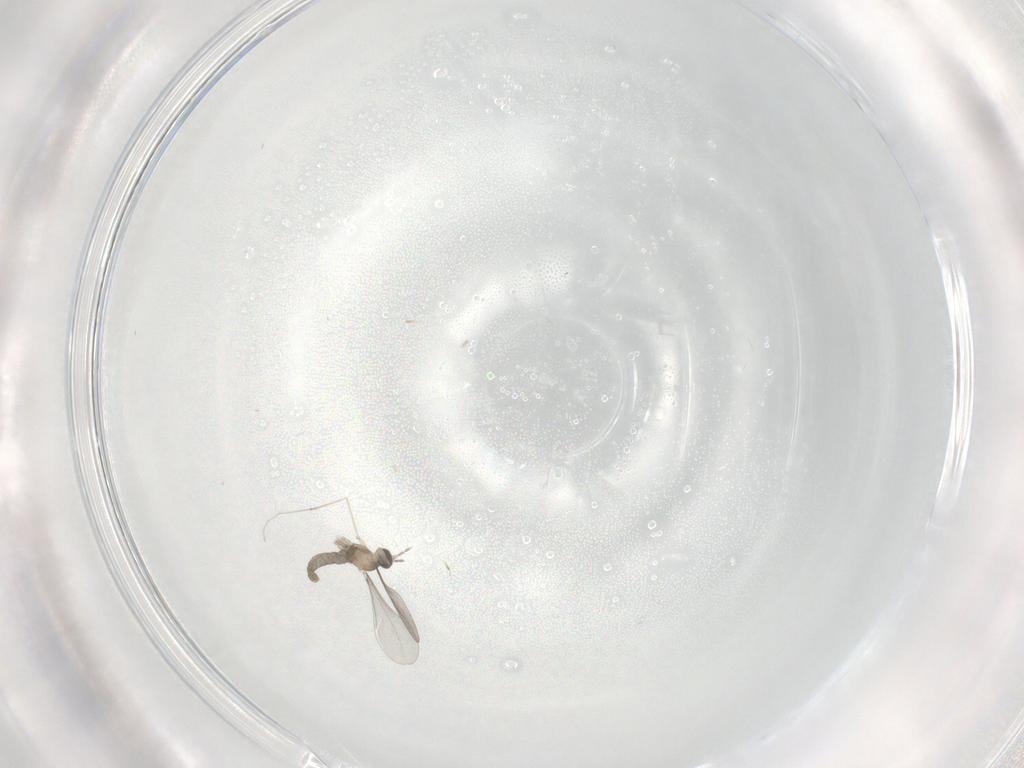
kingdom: Animalia
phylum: Arthropoda
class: Insecta
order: Diptera
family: Cecidomyiidae
